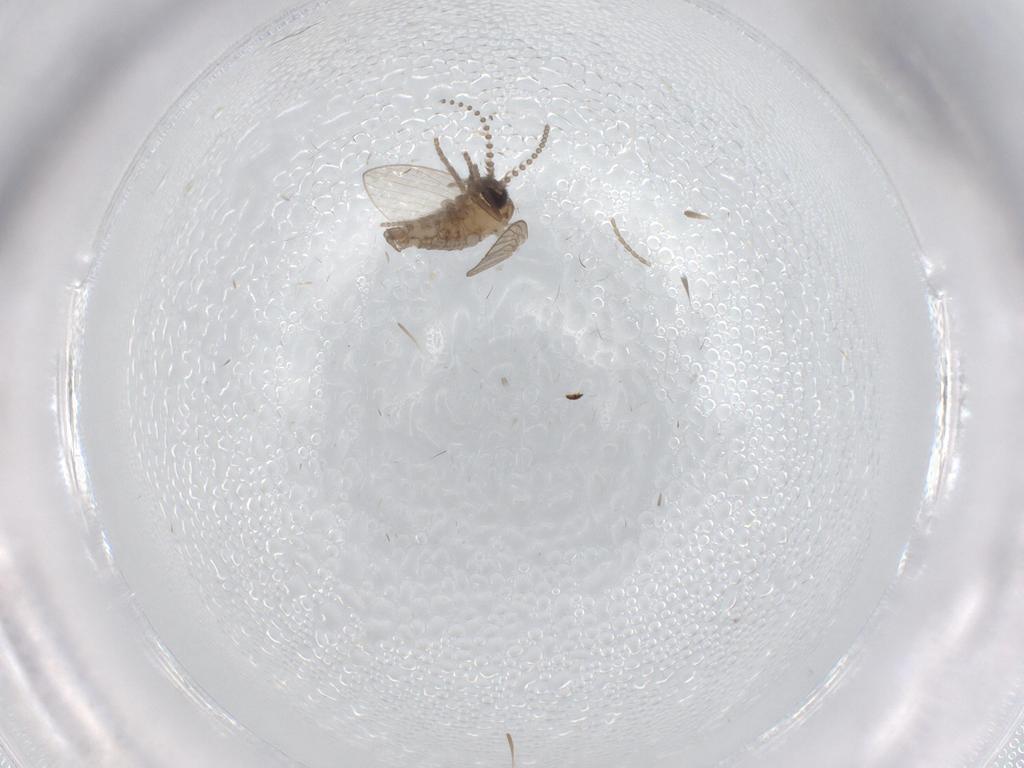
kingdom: Animalia
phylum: Arthropoda
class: Insecta
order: Diptera
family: Cecidomyiidae
